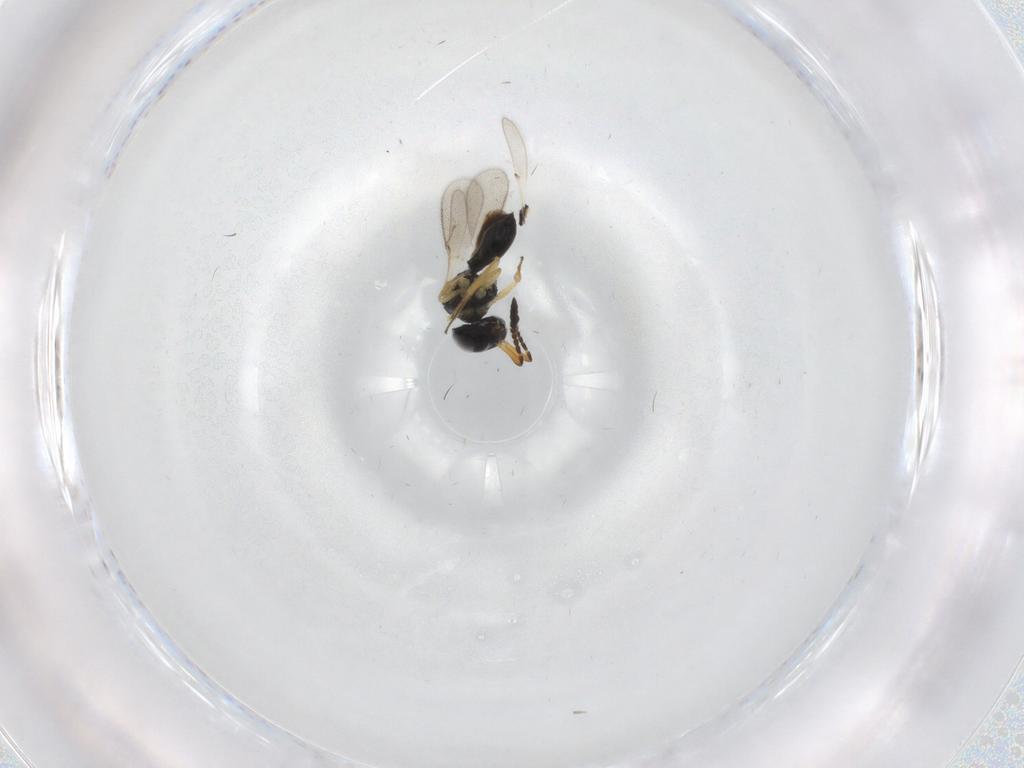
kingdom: Animalia
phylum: Arthropoda
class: Insecta
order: Hymenoptera
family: Scelionidae
